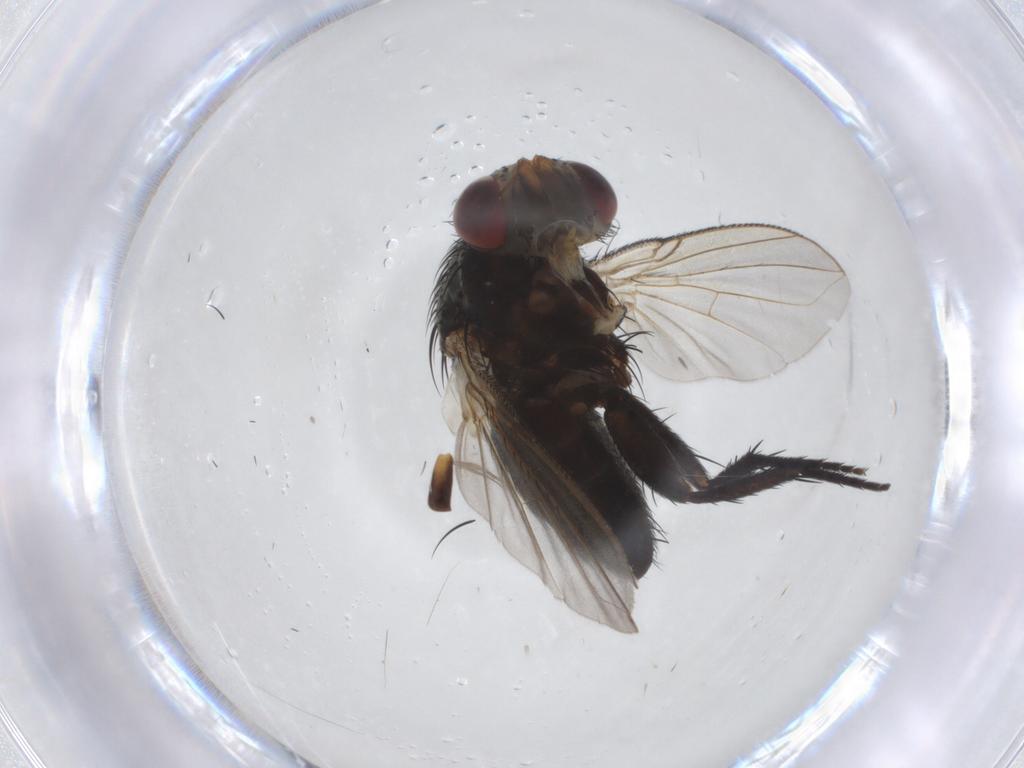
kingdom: Animalia
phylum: Arthropoda
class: Insecta
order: Diptera
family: Tachinidae
